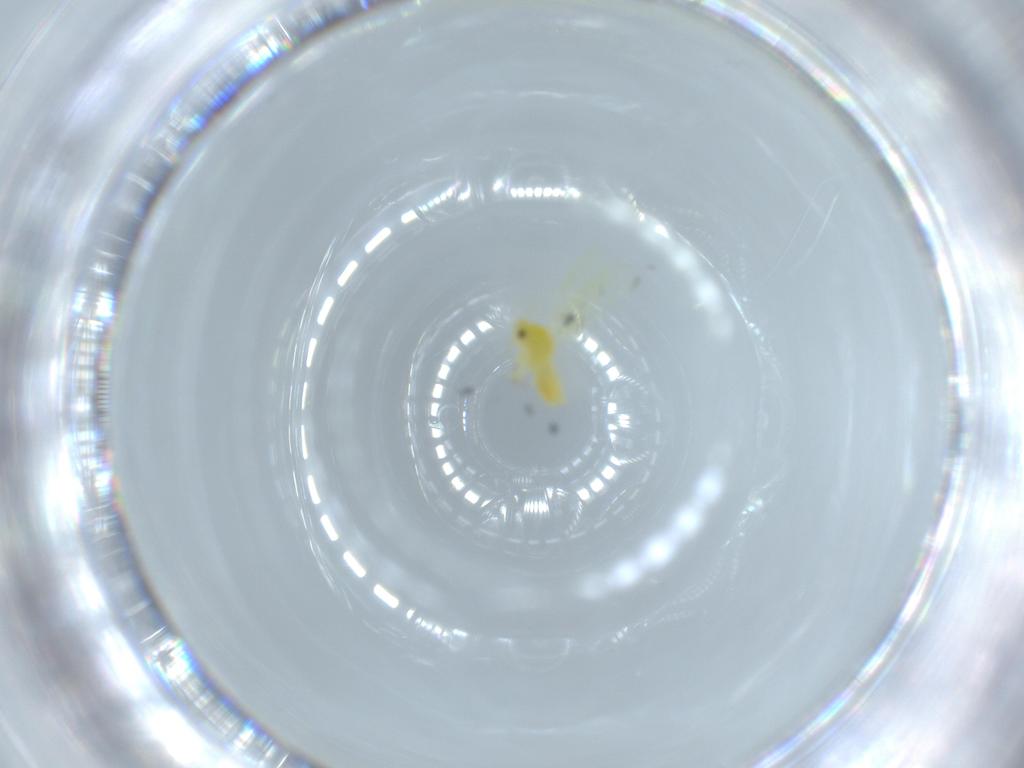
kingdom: Animalia
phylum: Arthropoda
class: Insecta
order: Hemiptera
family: Aleyrodidae
